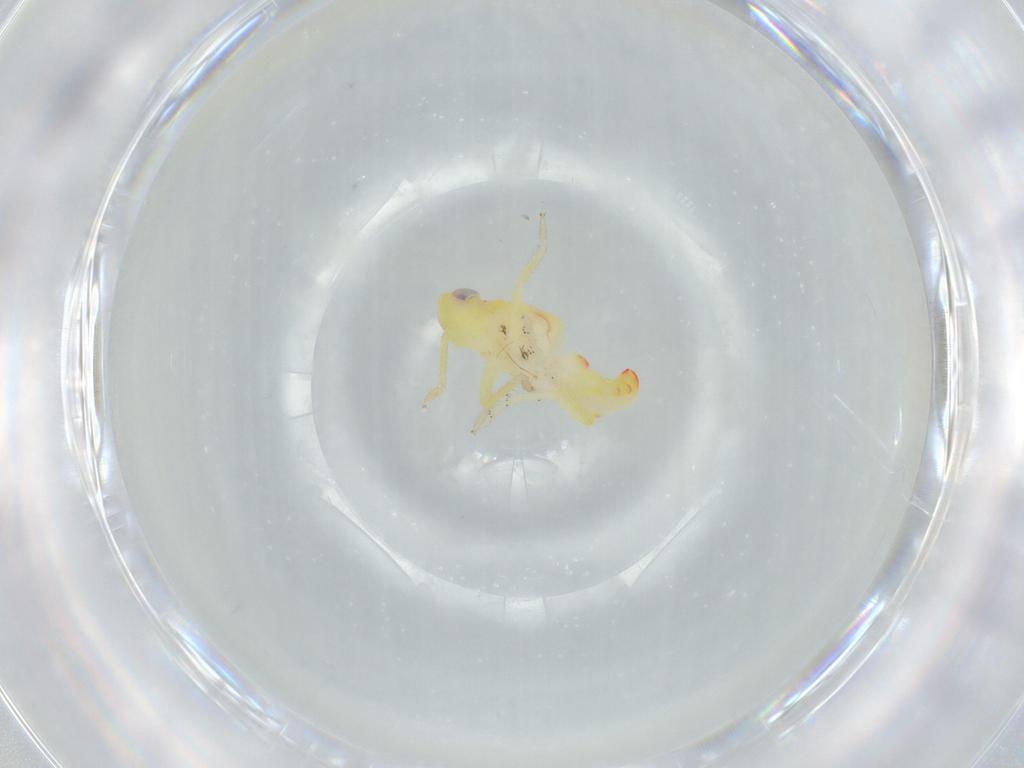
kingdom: Animalia
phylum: Arthropoda
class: Insecta
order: Hemiptera
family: Tropiduchidae
